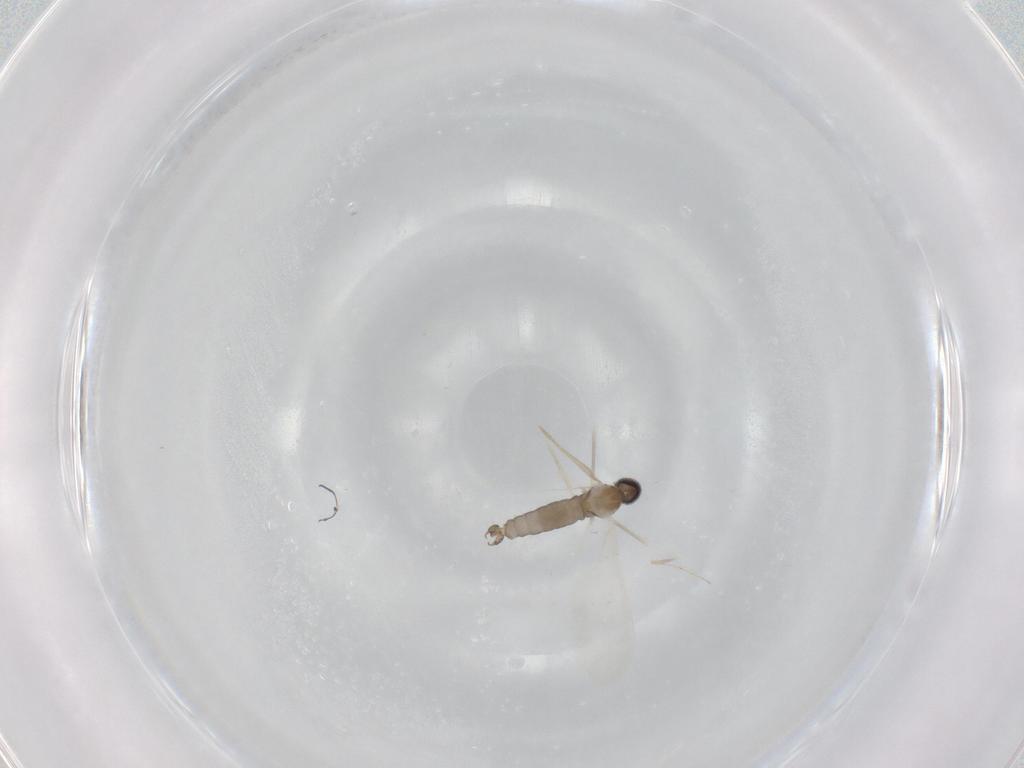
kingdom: Animalia
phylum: Arthropoda
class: Insecta
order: Diptera
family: Cecidomyiidae
